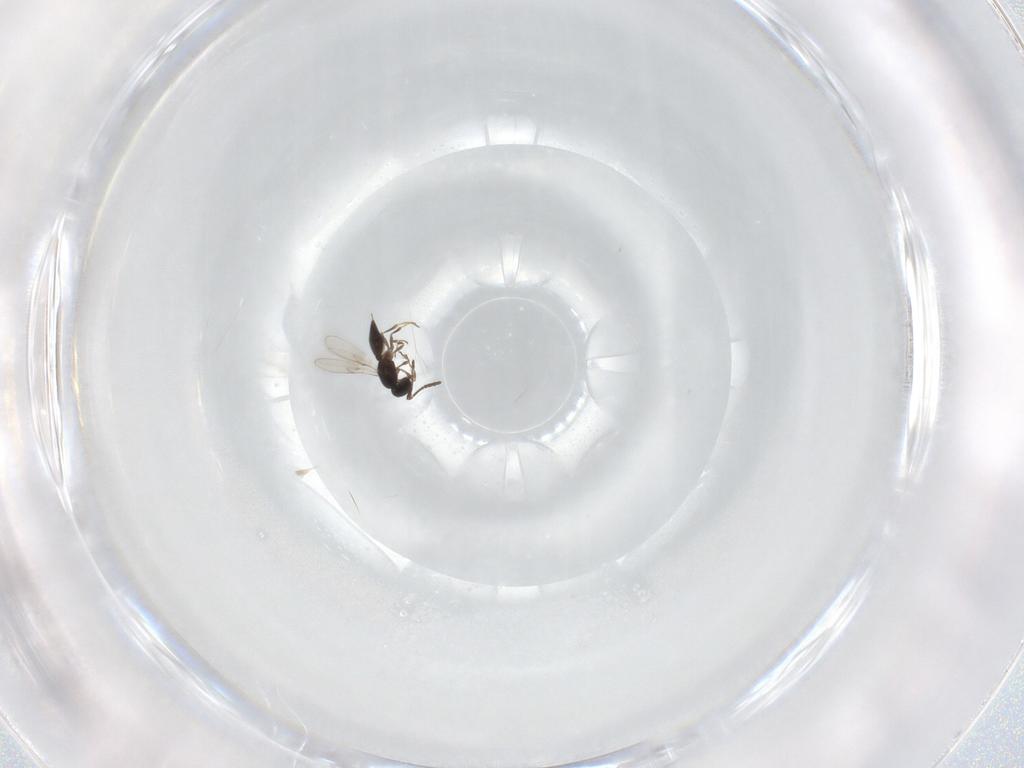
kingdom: Animalia
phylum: Arthropoda
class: Insecta
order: Hymenoptera
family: Scelionidae
